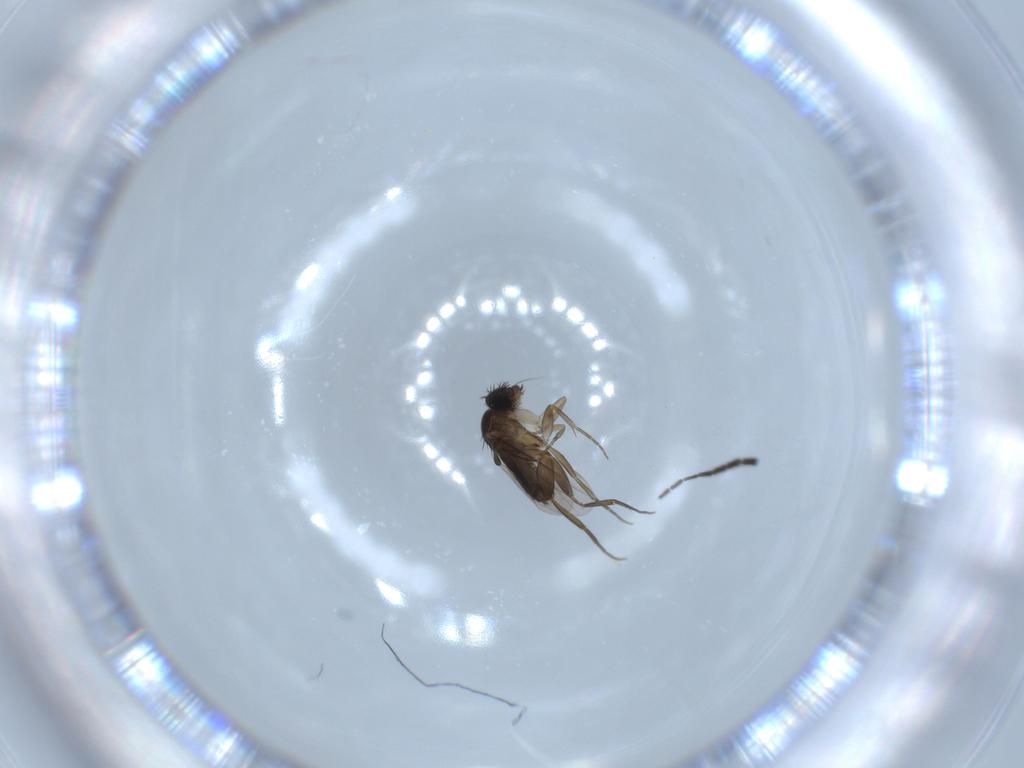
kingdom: Animalia
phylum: Arthropoda
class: Insecta
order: Diptera
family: Phoridae
